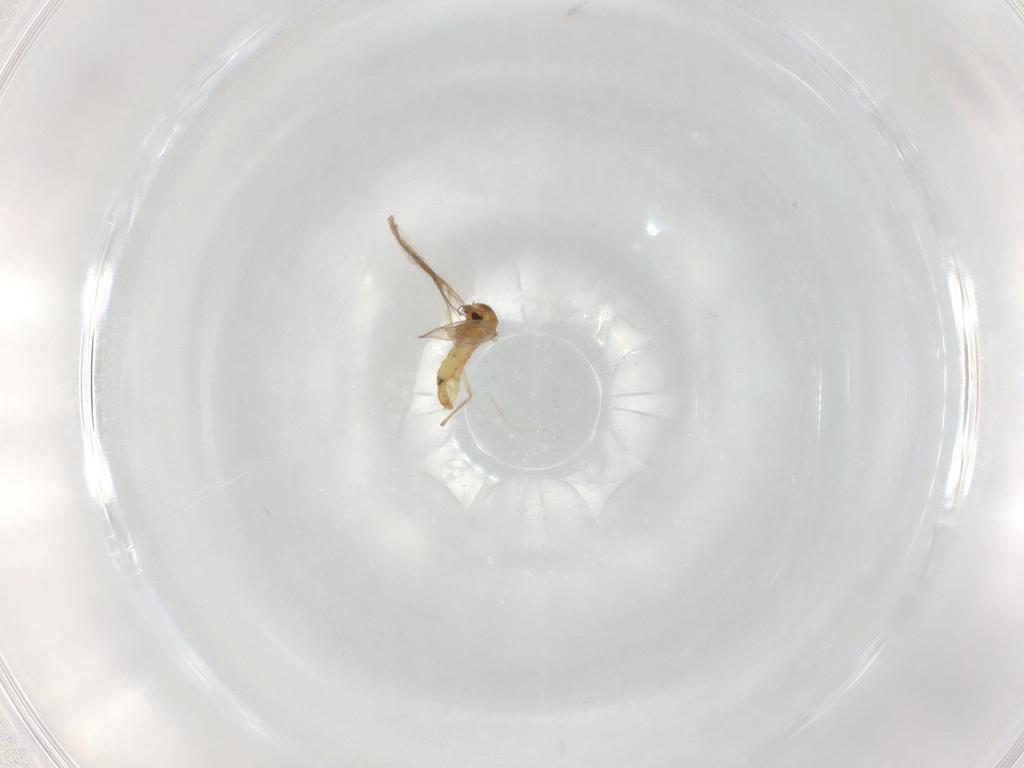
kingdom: Animalia
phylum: Arthropoda
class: Insecta
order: Diptera
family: Chironomidae
